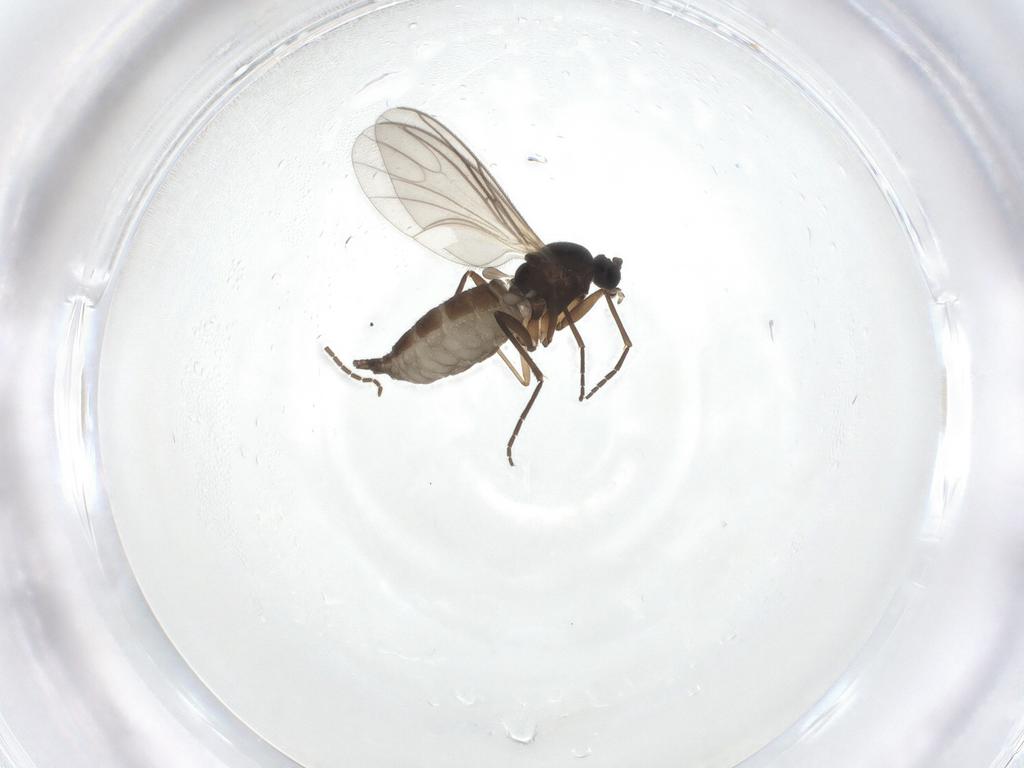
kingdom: Animalia
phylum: Arthropoda
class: Insecta
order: Diptera
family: Sciaridae
